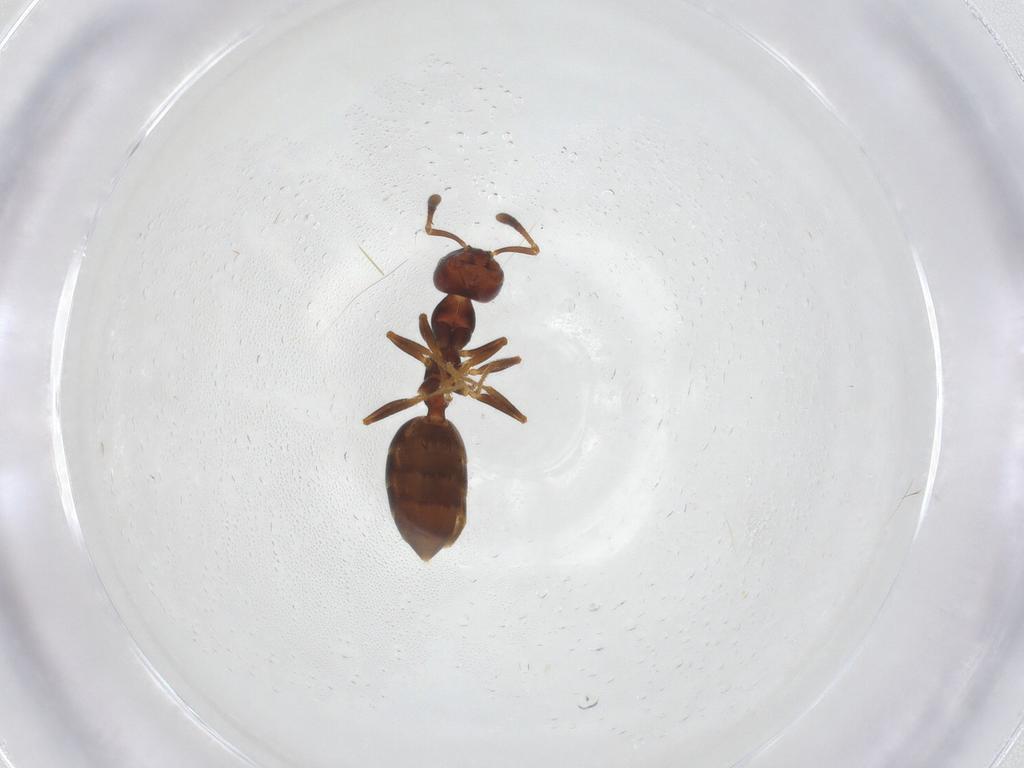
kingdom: Animalia
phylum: Arthropoda
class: Insecta
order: Hymenoptera
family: Formicidae
